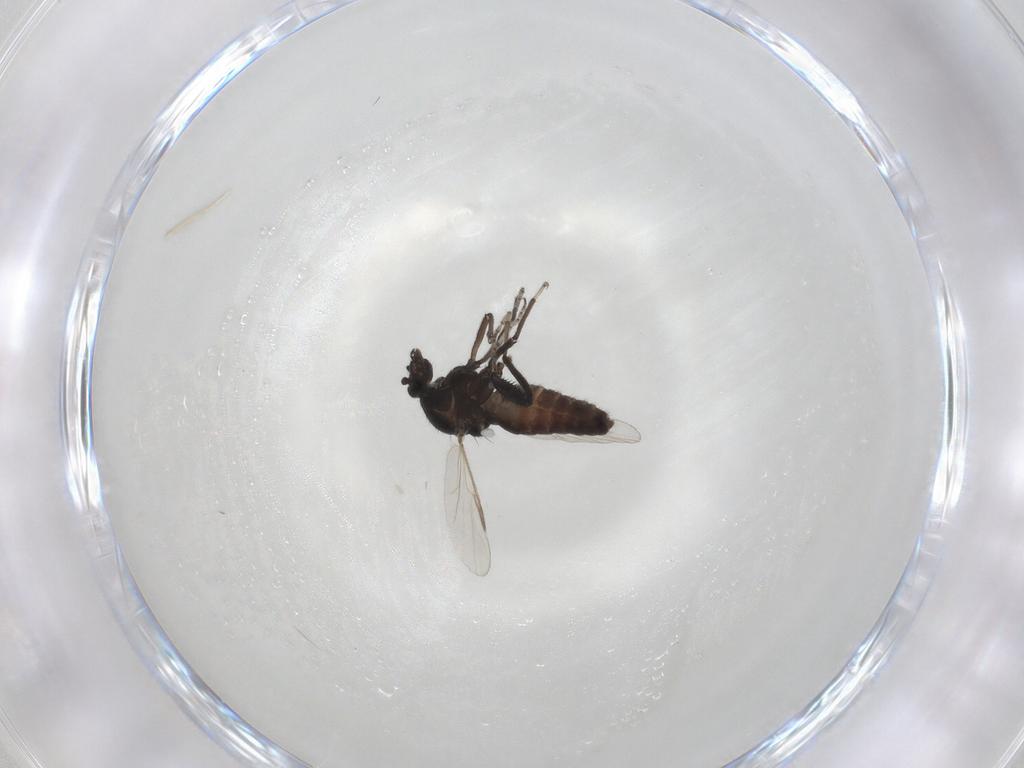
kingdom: Animalia
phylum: Arthropoda
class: Insecta
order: Diptera
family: Ceratopogonidae
